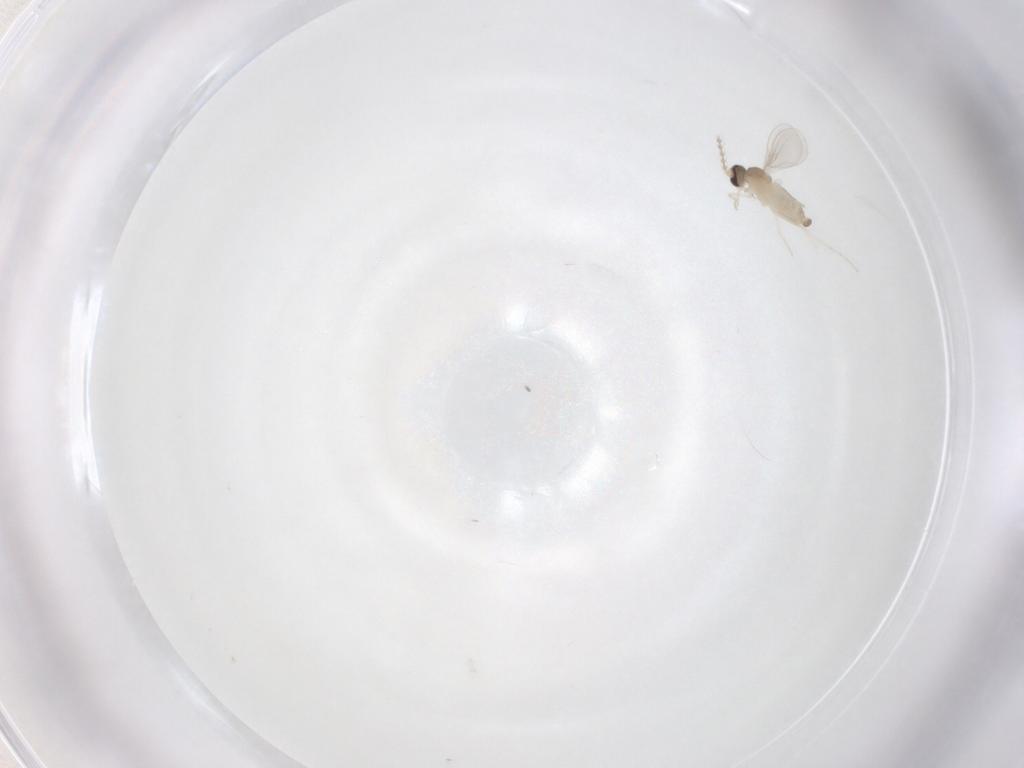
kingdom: Animalia
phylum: Arthropoda
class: Insecta
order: Diptera
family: Cecidomyiidae
